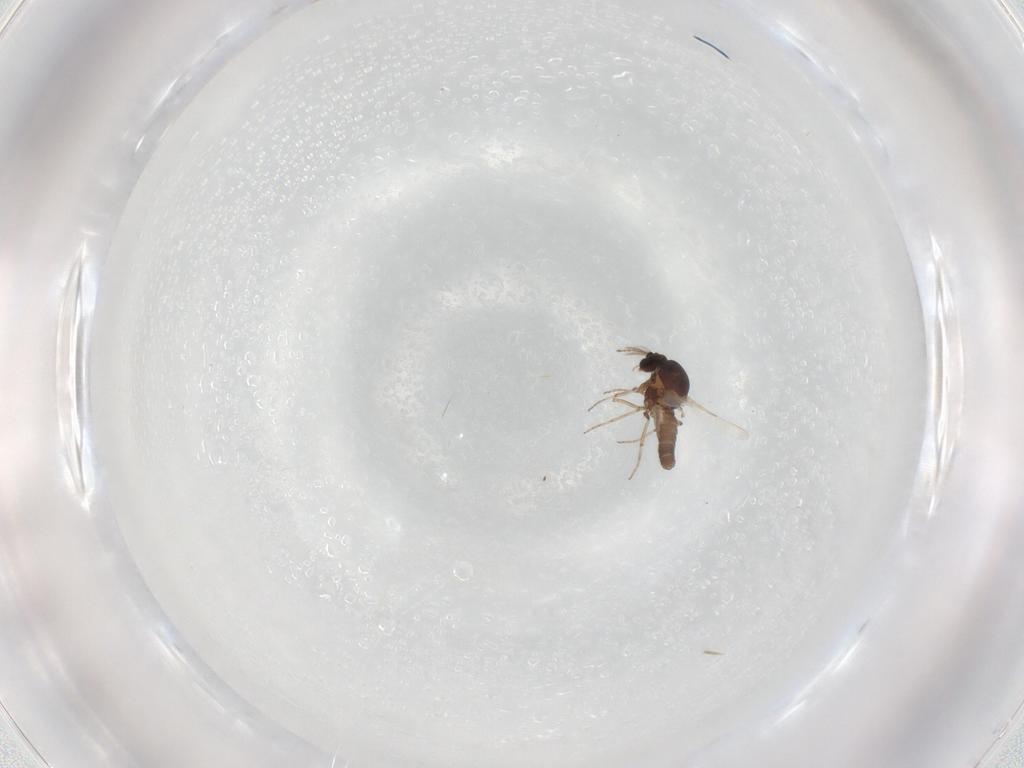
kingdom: Animalia
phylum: Arthropoda
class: Insecta
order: Diptera
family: Ceratopogonidae
